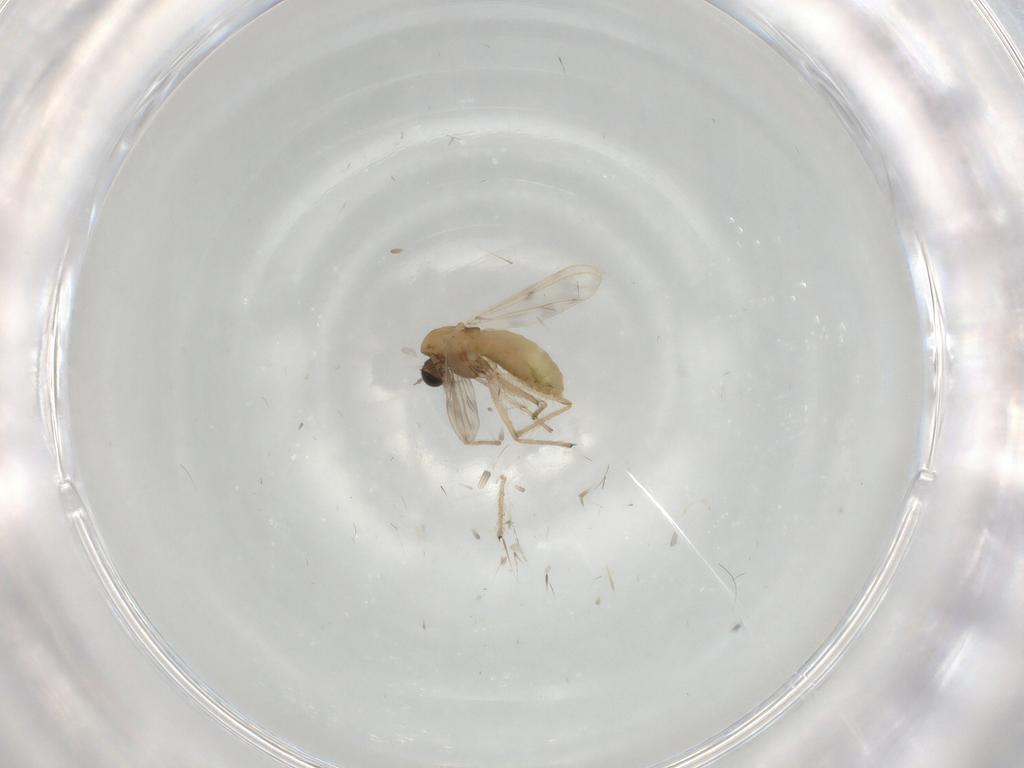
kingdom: Animalia
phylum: Arthropoda
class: Insecta
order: Diptera
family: Chironomidae
